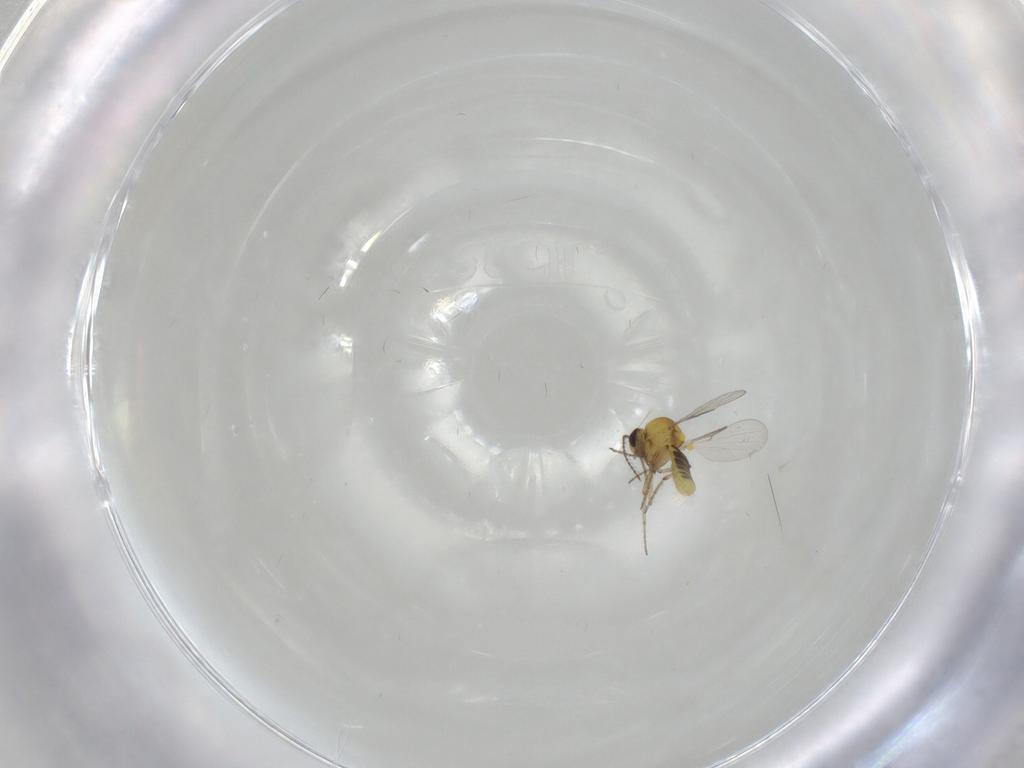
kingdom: Animalia
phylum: Arthropoda
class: Insecta
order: Diptera
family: Ceratopogonidae
